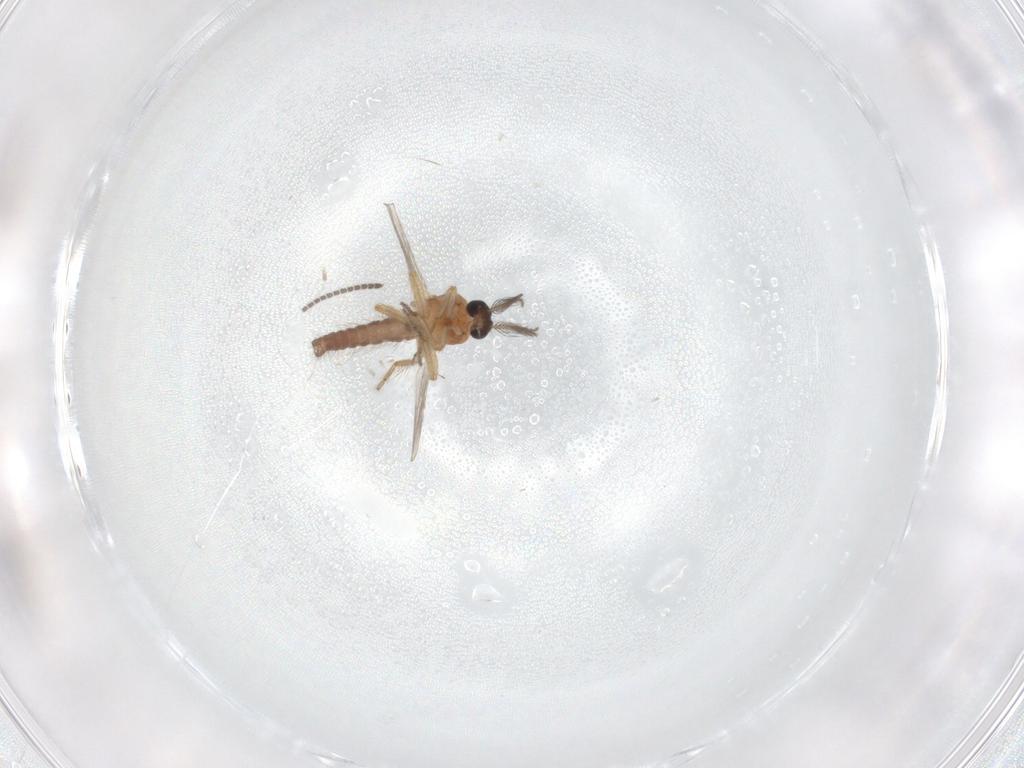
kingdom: Animalia
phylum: Arthropoda
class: Insecta
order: Diptera
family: Ceratopogonidae
